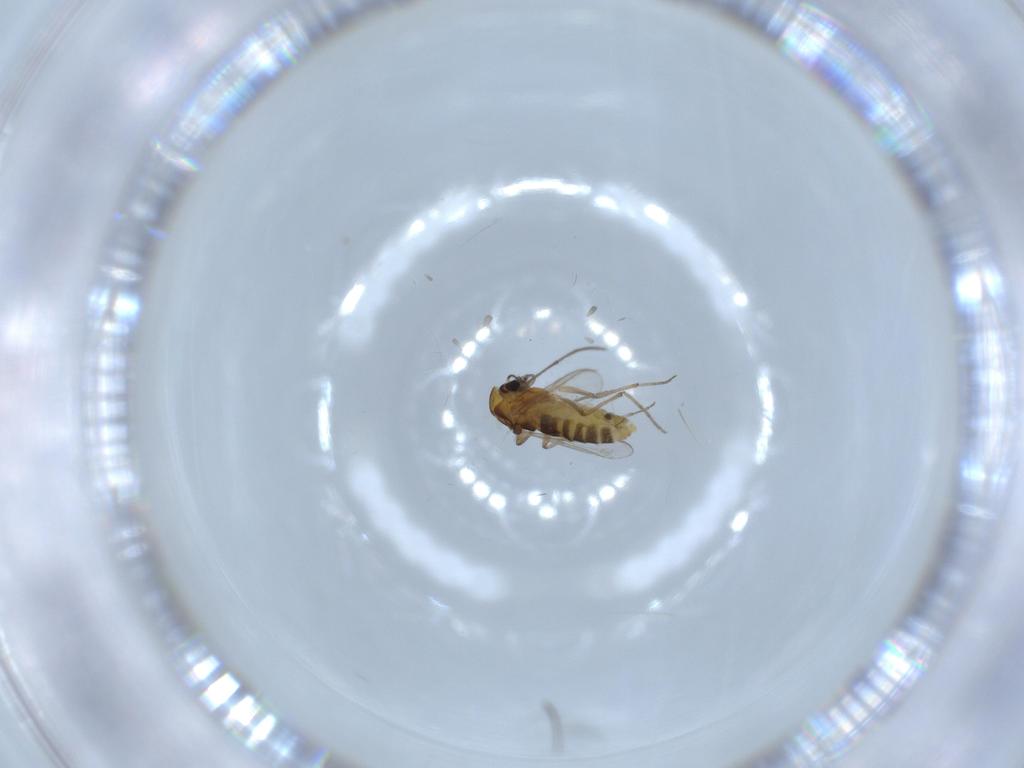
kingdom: Animalia
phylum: Arthropoda
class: Insecta
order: Diptera
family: Chironomidae
